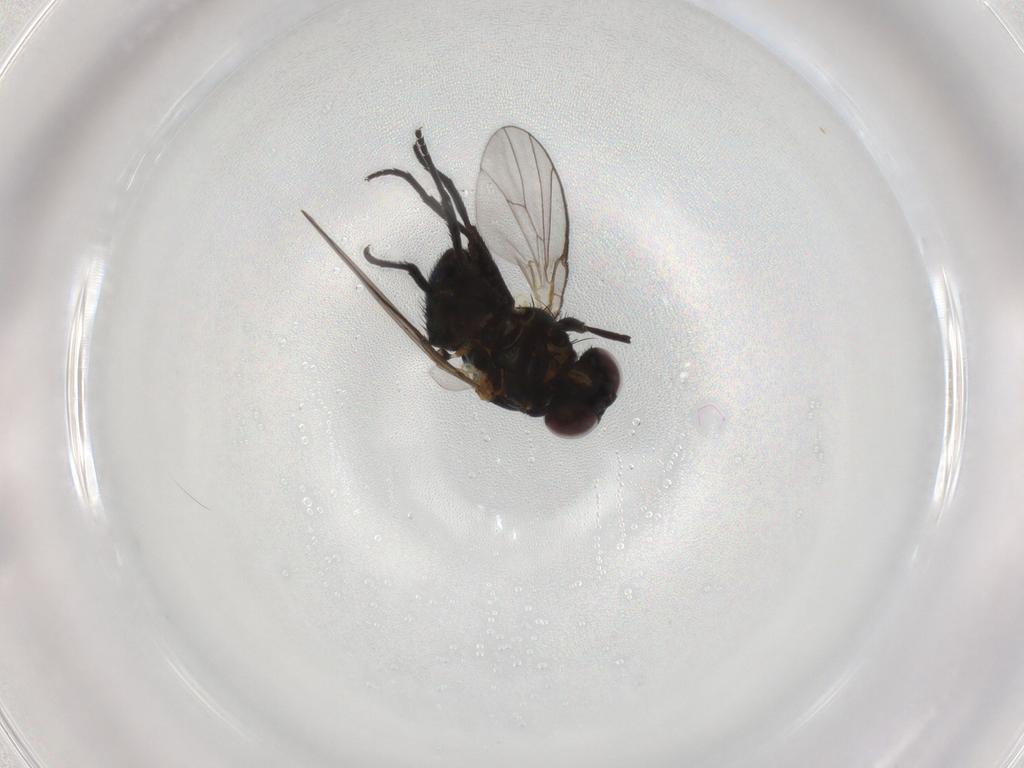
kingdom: Animalia
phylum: Arthropoda
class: Insecta
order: Diptera
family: Agromyzidae
